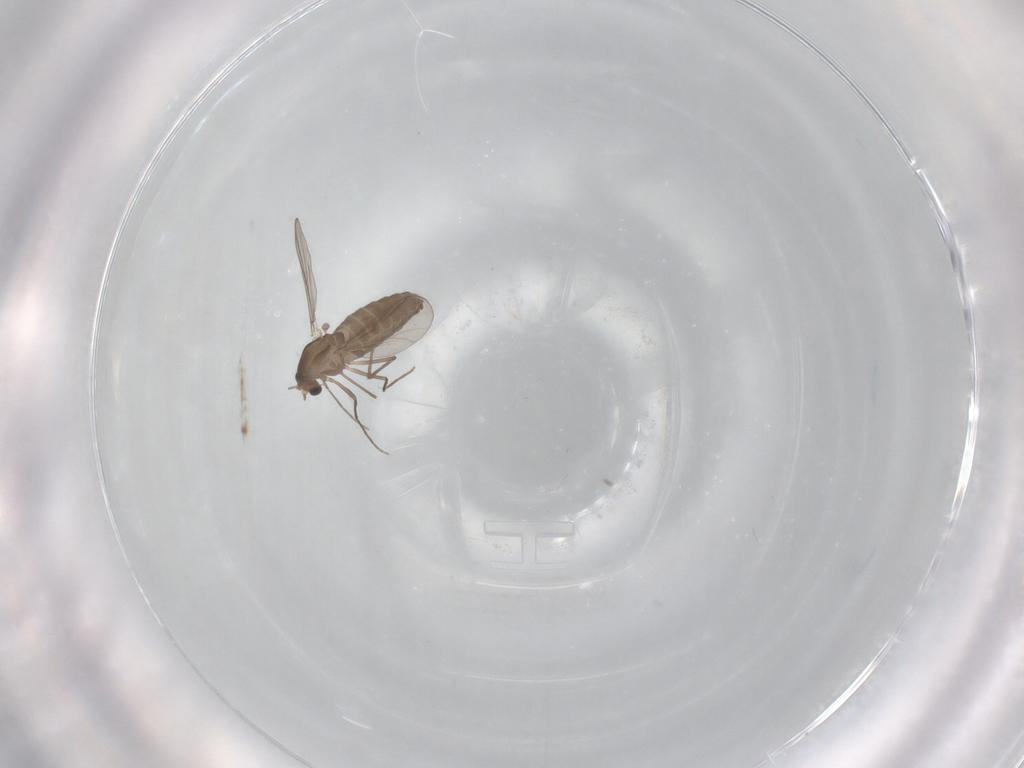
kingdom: Animalia
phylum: Arthropoda
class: Insecta
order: Diptera
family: Chironomidae
